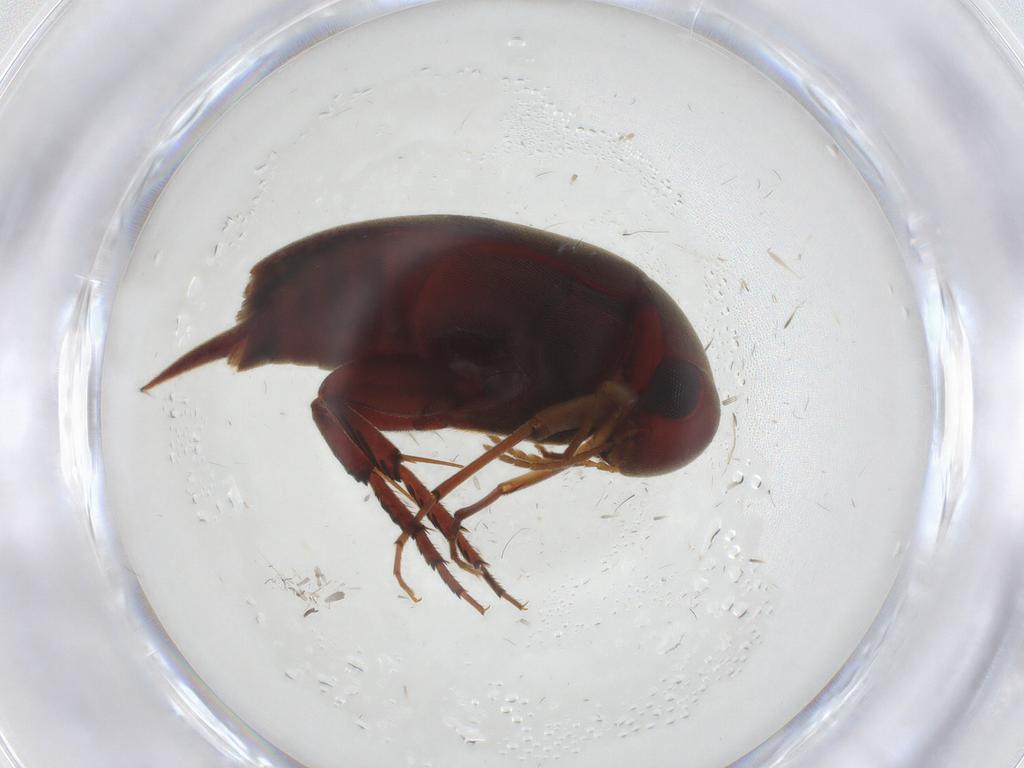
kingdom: Animalia
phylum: Arthropoda
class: Insecta
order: Coleoptera
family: Mordellidae
